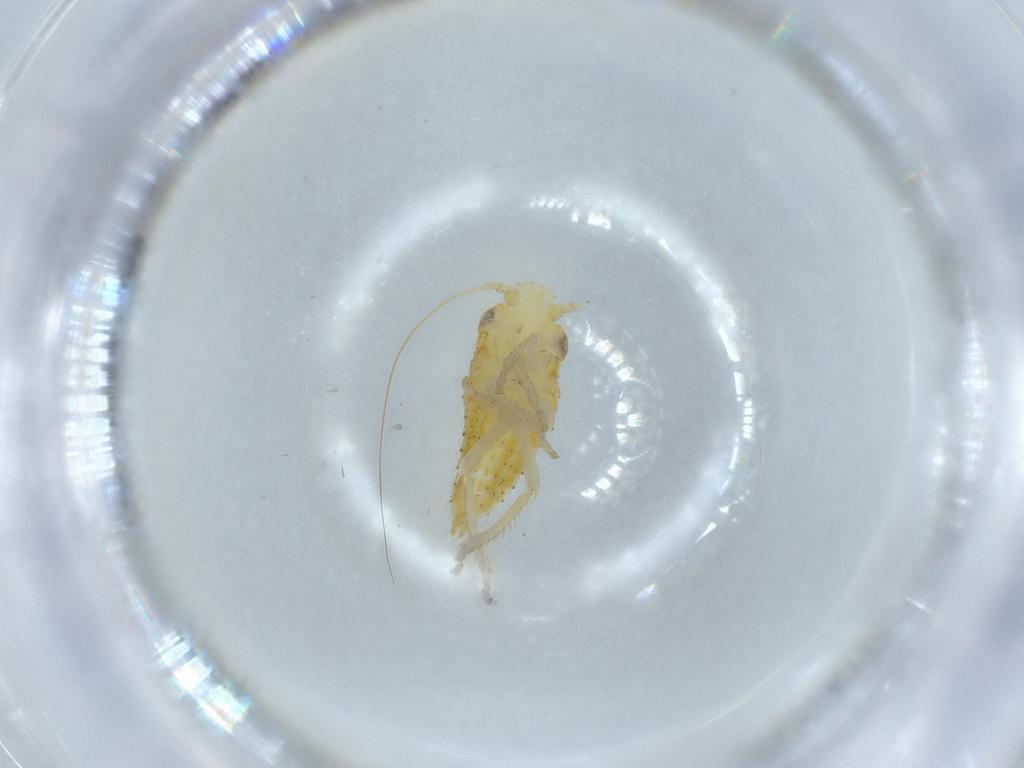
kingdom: Animalia
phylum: Arthropoda
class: Insecta
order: Hemiptera
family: Cicadellidae
